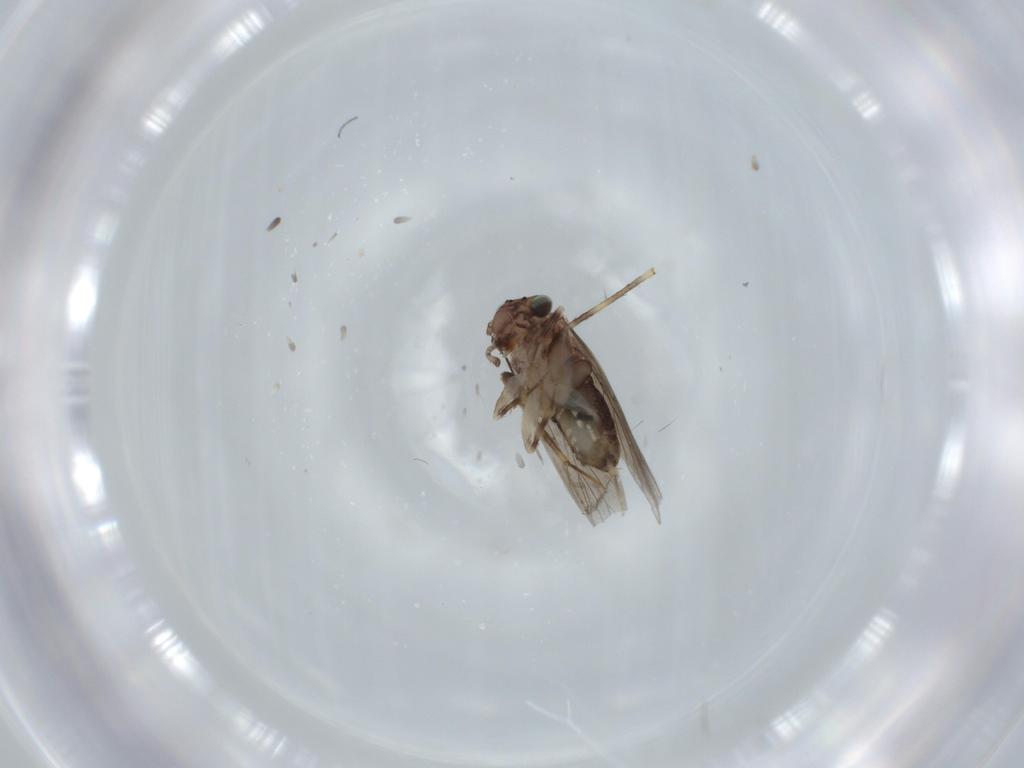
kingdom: Animalia
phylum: Arthropoda
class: Insecta
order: Psocodea
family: Lepidopsocidae
